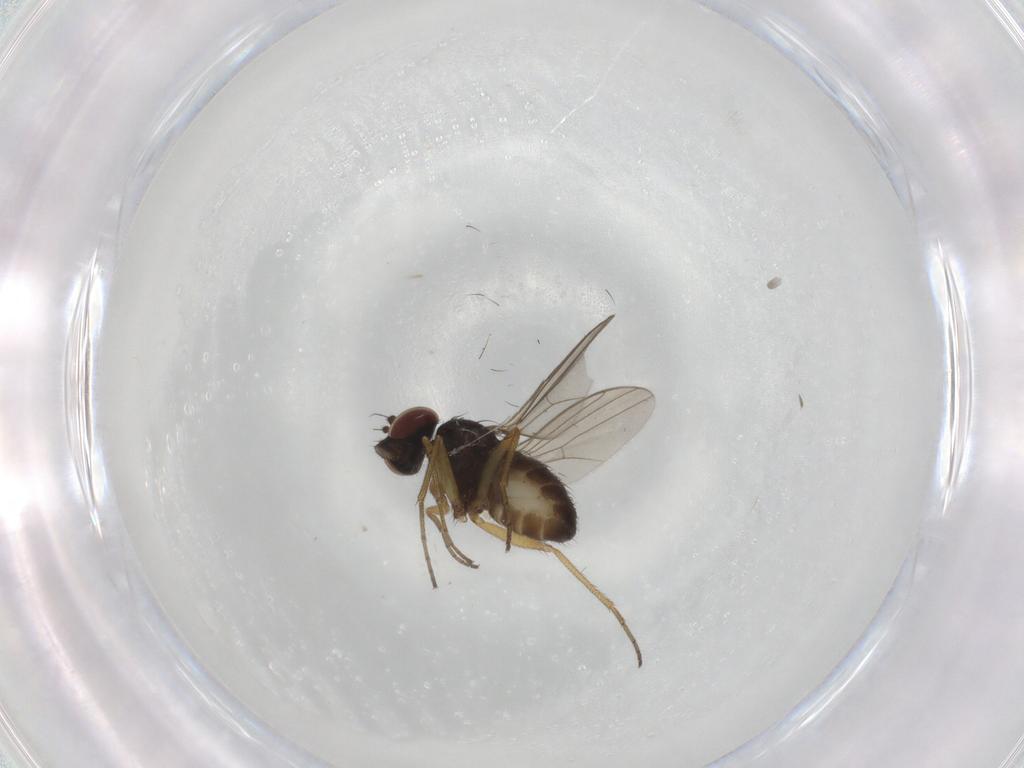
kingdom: Animalia
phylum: Arthropoda
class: Insecta
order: Diptera
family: Dolichopodidae
